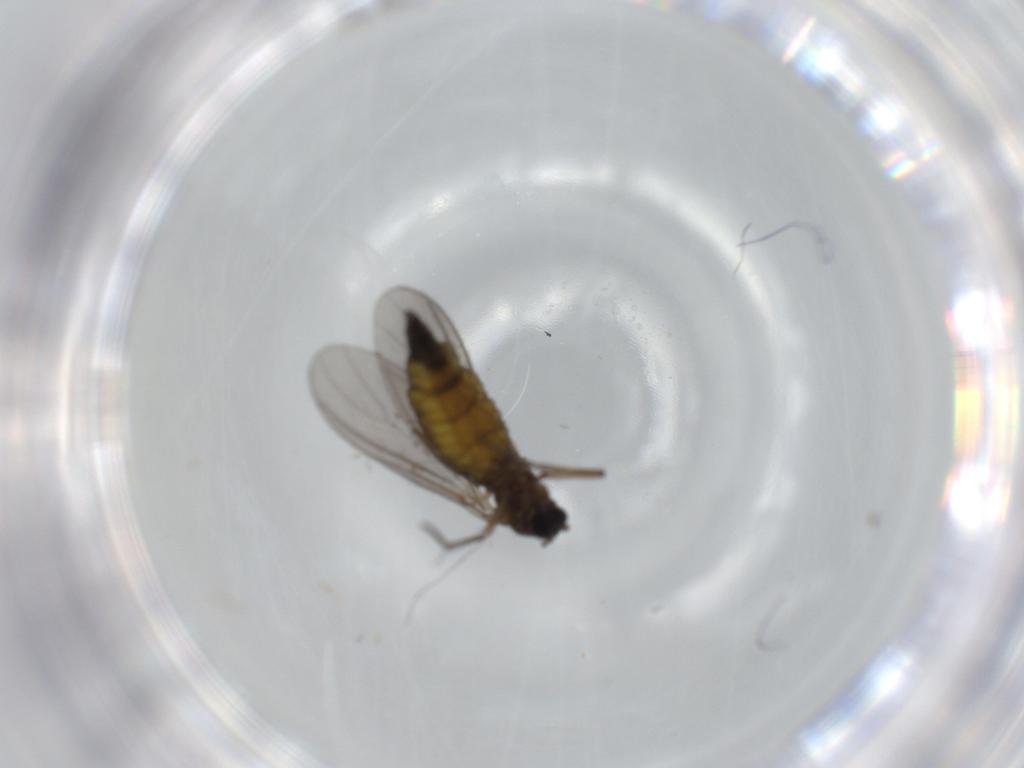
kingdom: Animalia
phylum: Arthropoda
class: Insecta
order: Diptera
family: Sciaridae
